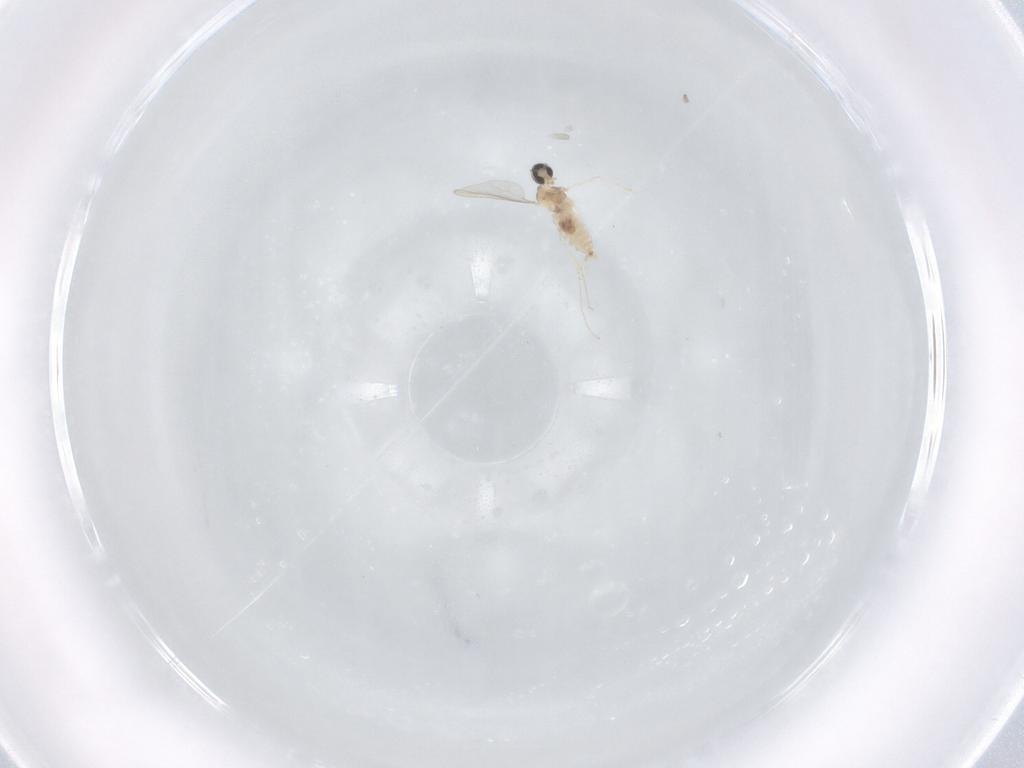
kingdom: Animalia
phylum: Arthropoda
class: Insecta
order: Diptera
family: Cecidomyiidae
